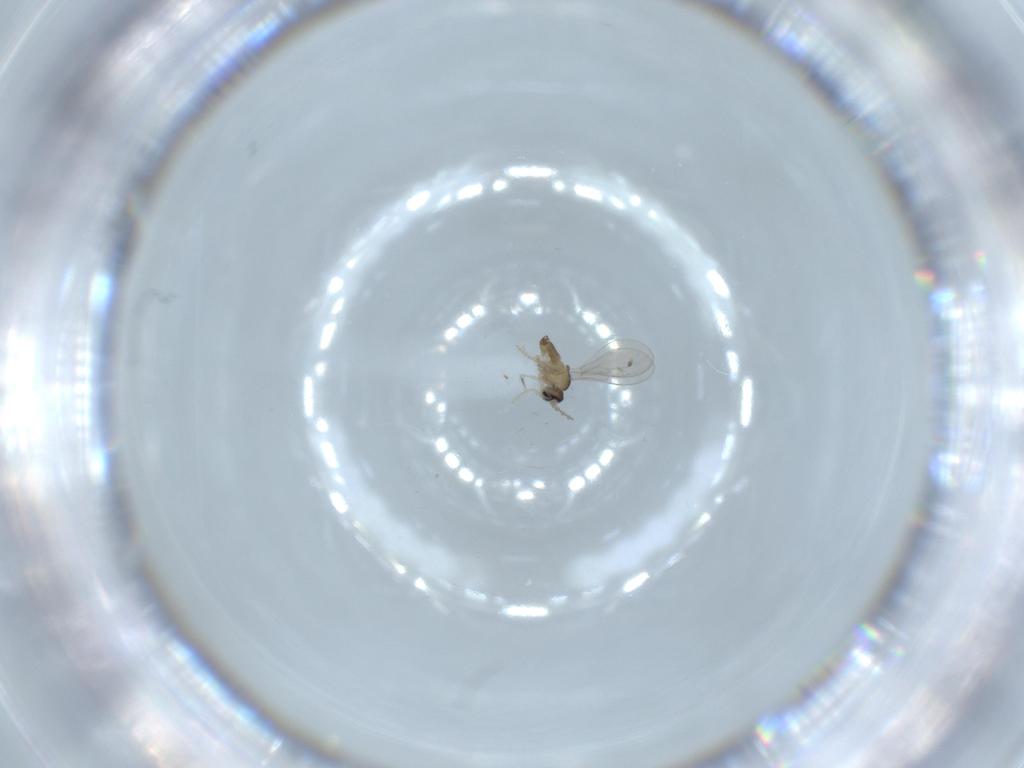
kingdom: Animalia
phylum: Arthropoda
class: Insecta
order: Diptera
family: Cecidomyiidae
